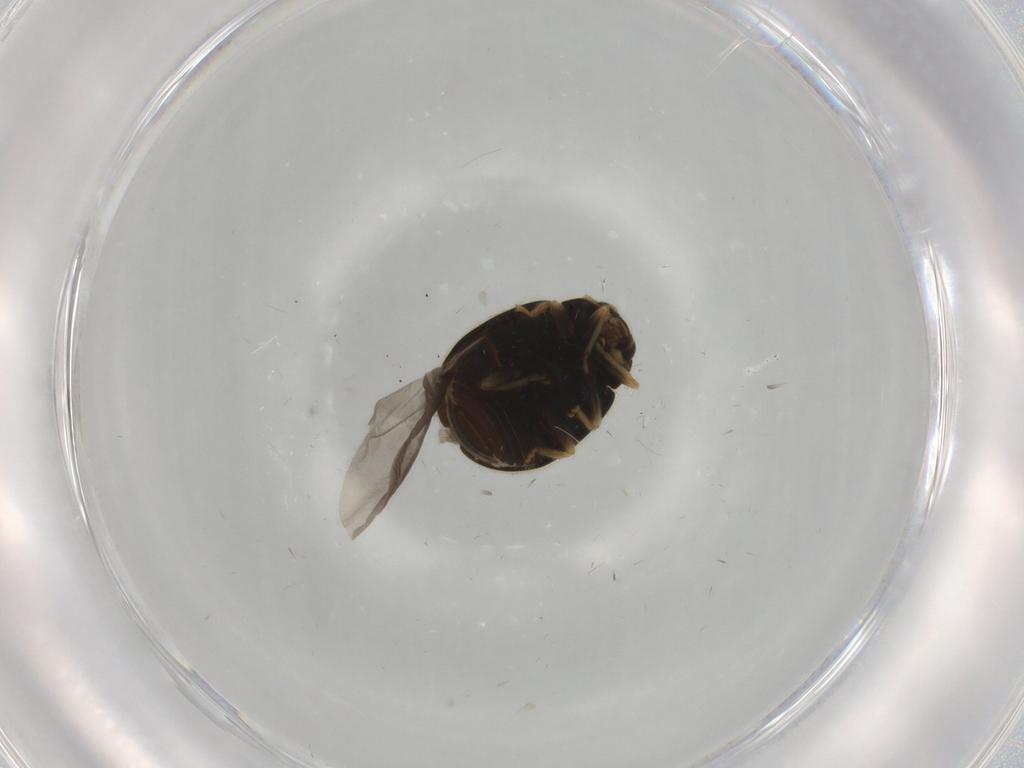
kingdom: Animalia
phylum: Arthropoda
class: Insecta
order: Coleoptera
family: Coccinellidae
